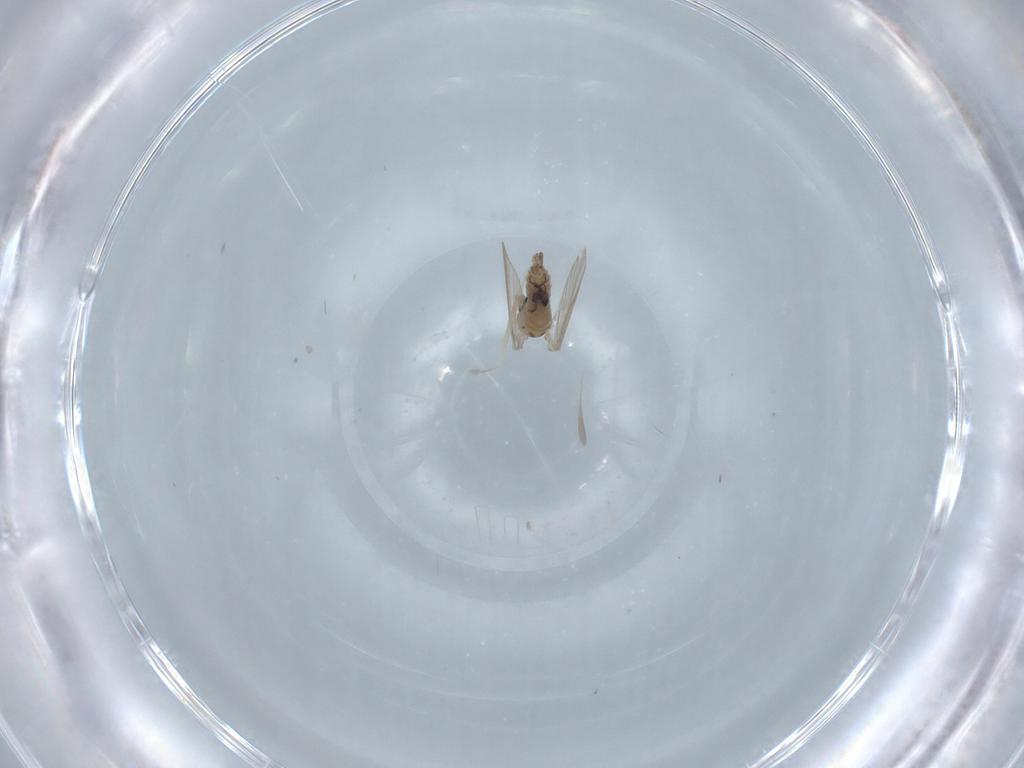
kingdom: Animalia
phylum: Arthropoda
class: Insecta
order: Diptera
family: Psychodidae
